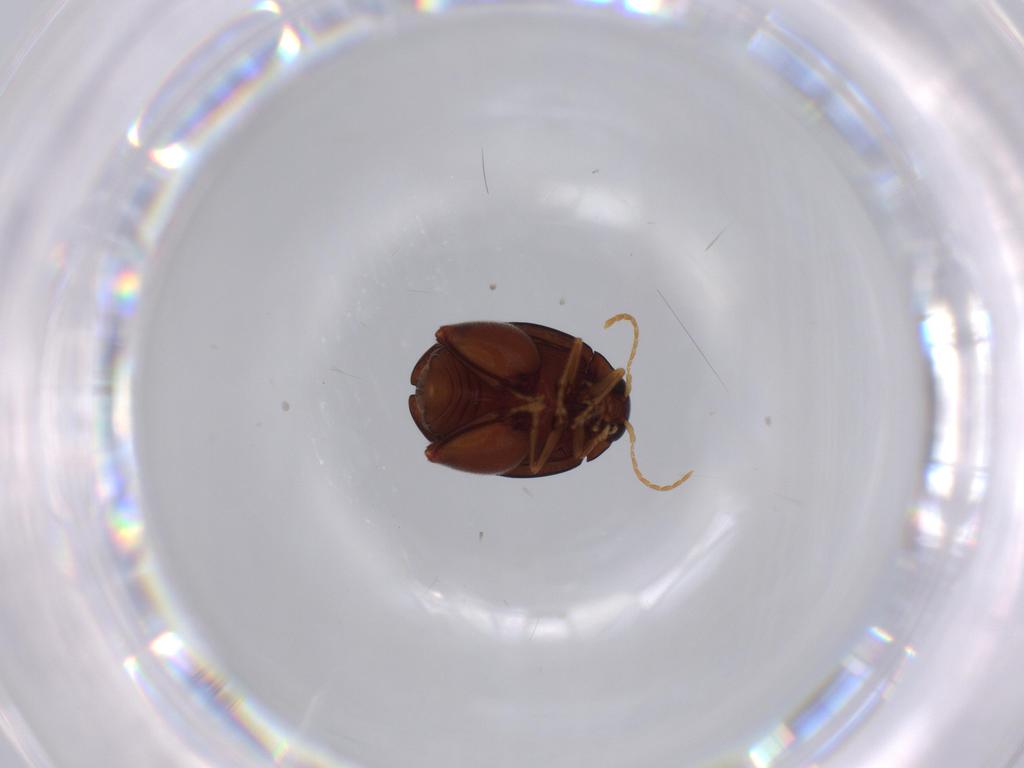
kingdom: Animalia
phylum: Arthropoda
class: Insecta
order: Coleoptera
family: Chrysomelidae
